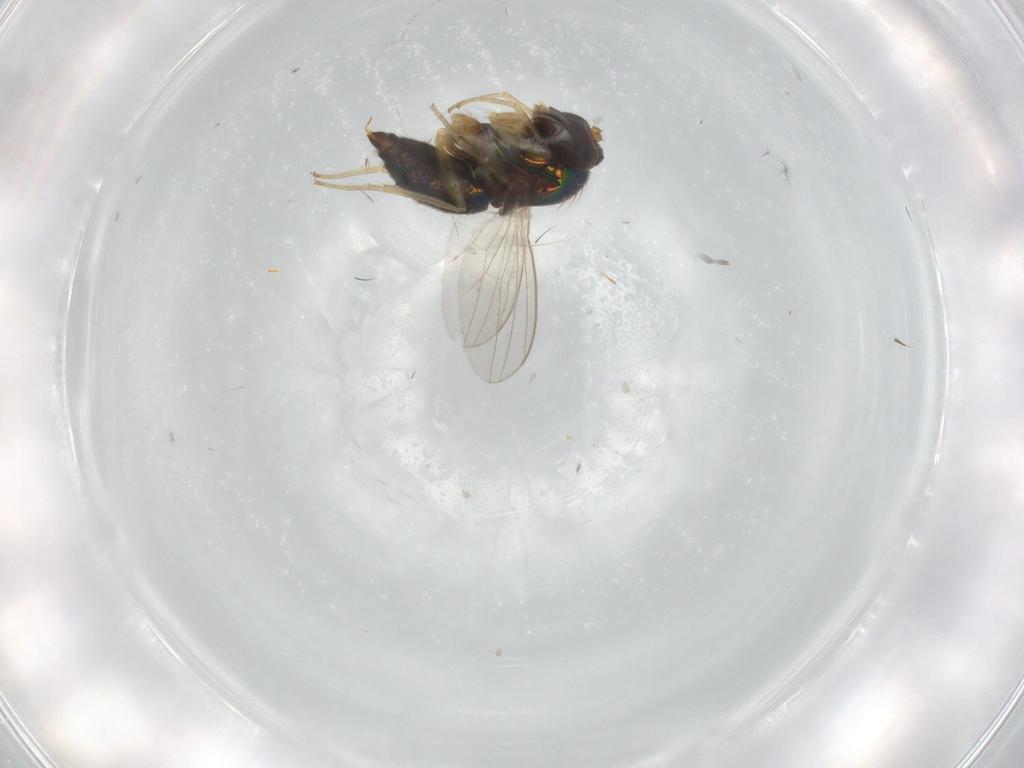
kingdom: Animalia
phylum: Arthropoda
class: Insecta
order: Diptera
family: Dolichopodidae
